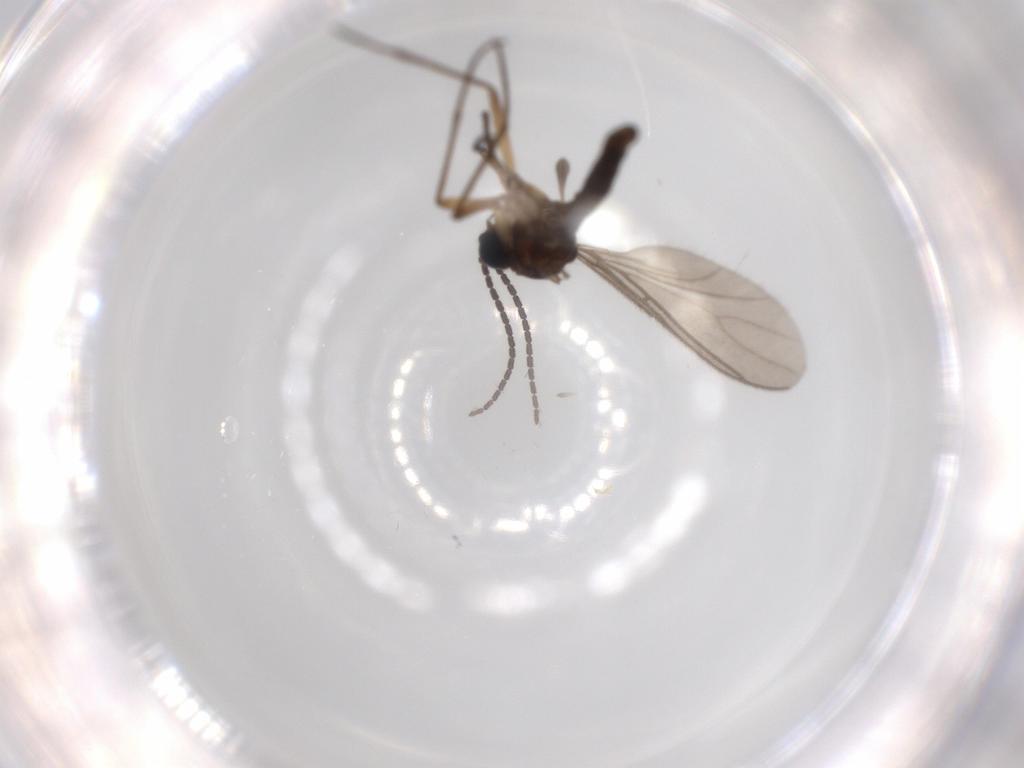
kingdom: Animalia
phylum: Arthropoda
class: Insecta
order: Diptera
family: Sciaridae
